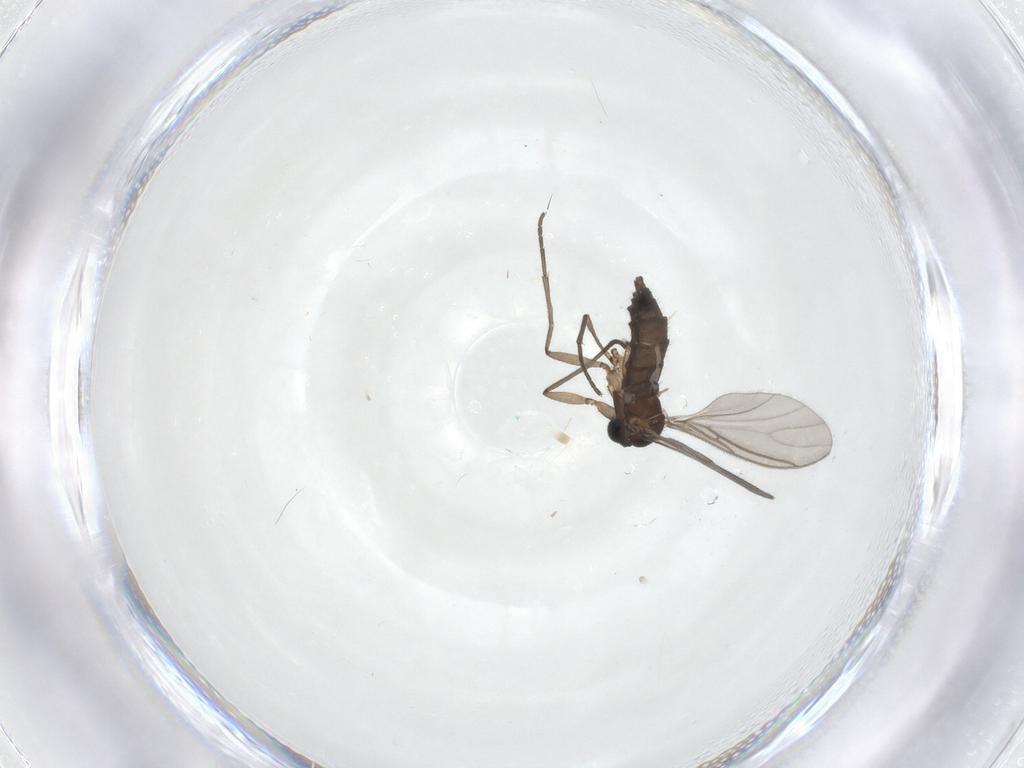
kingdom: Animalia
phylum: Arthropoda
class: Insecta
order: Diptera
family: Sciaridae
